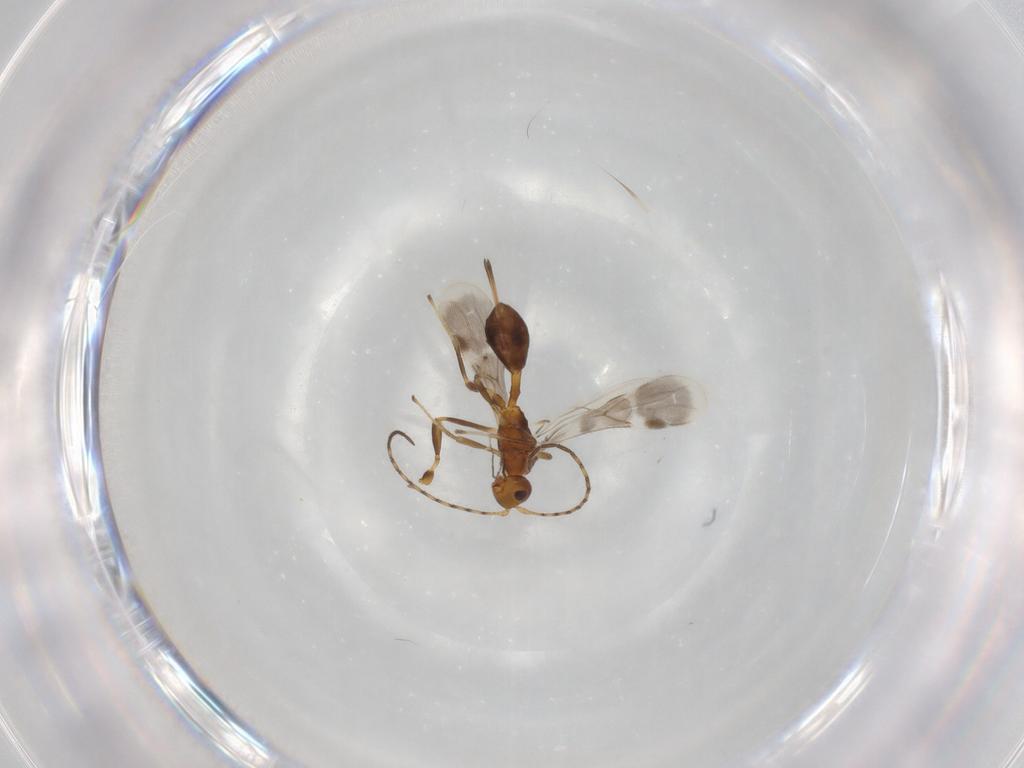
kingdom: Animalia
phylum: Arthropoda
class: Insecta
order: Hymenoptera
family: Braconidae
